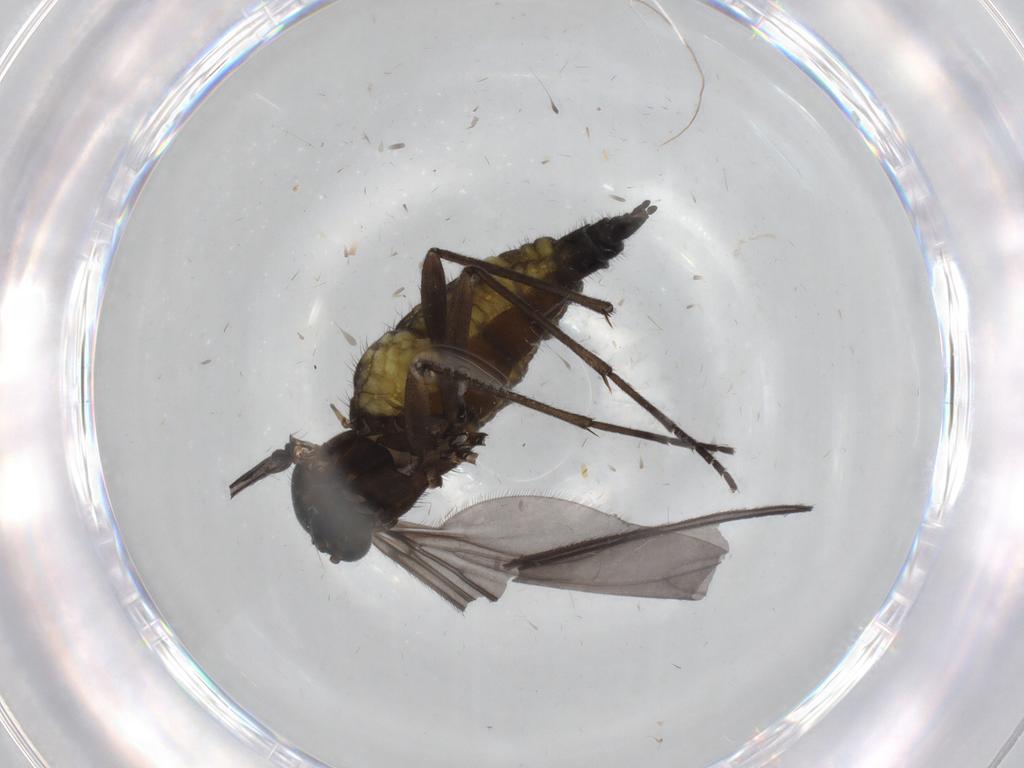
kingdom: Animalia
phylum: Arthropoda
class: Insecta
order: Diptera
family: Sciaridae
